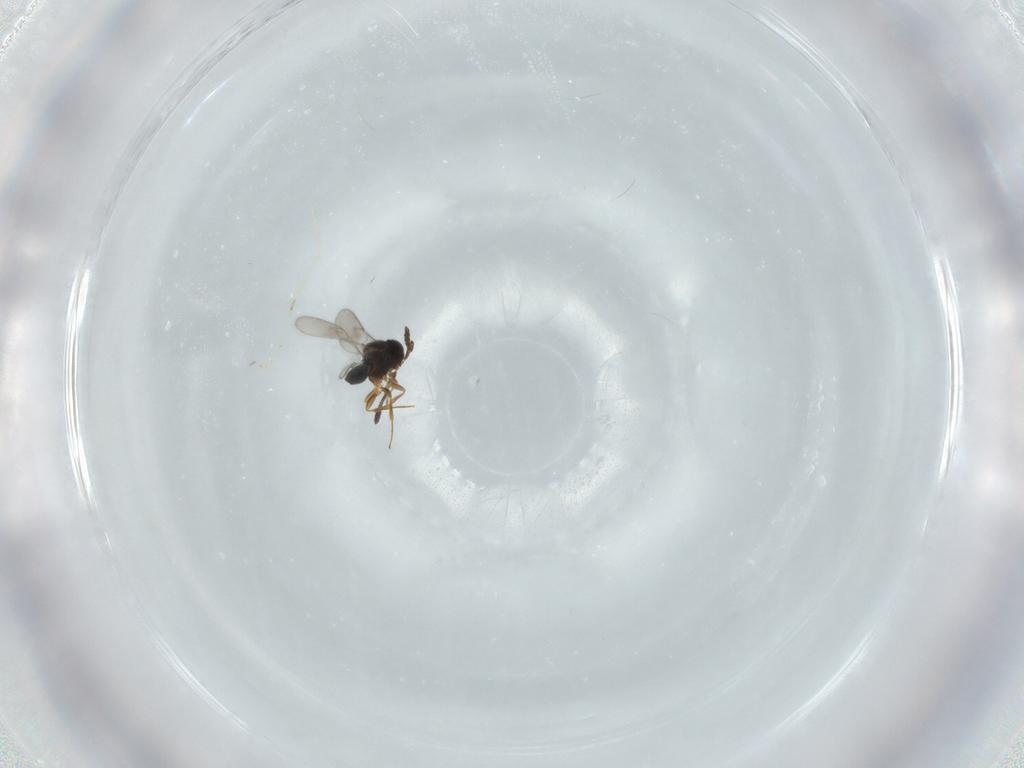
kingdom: Animalia
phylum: Arthropoda
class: Insecta
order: Hymenoptera
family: Scelionidae
